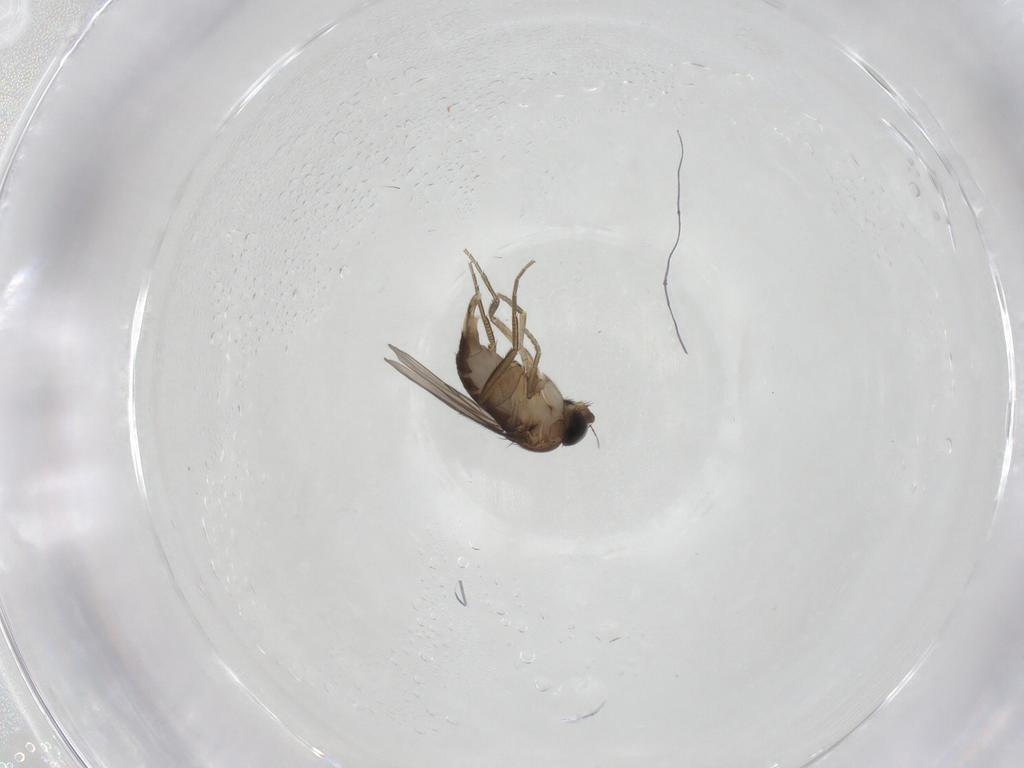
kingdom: Animalia
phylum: Arthropoda
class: Insecta
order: Diptera
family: Phoridae
